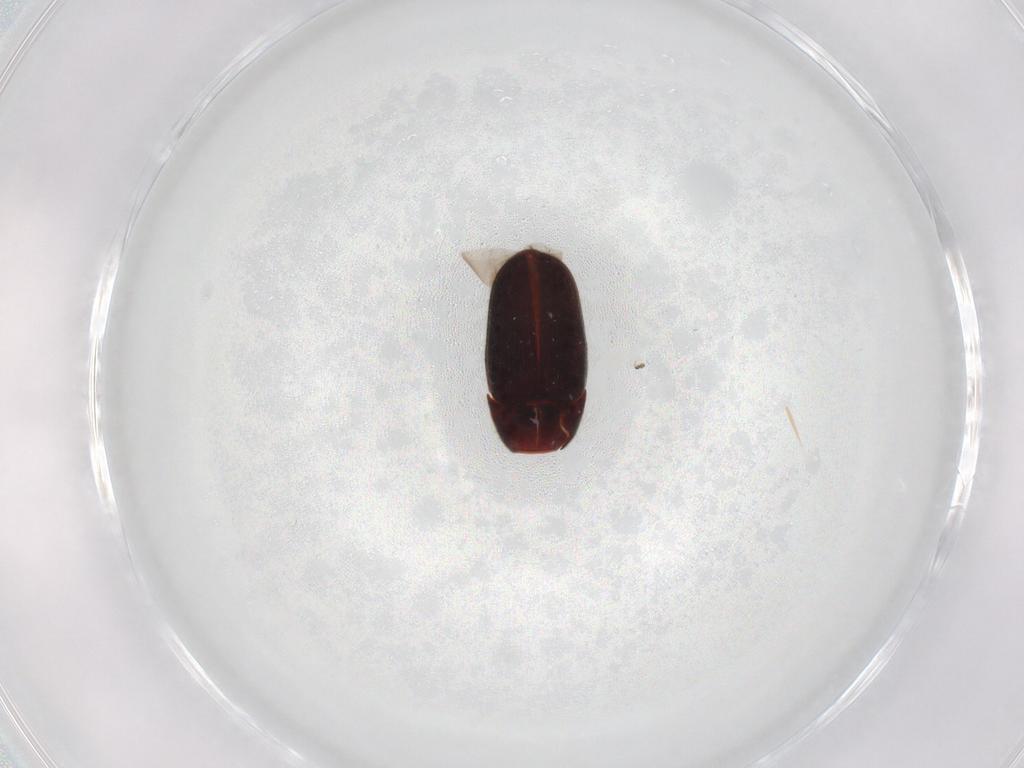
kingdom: Animalia
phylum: Arthropoda
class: Insecta
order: Coleoptera
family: Throscidae
